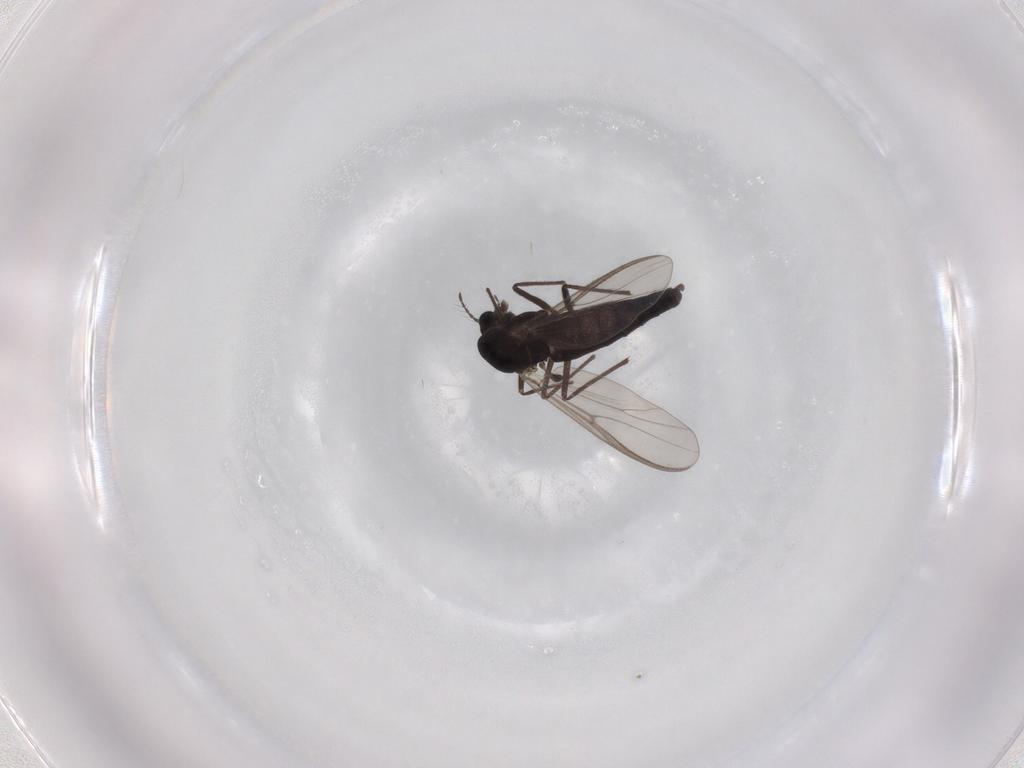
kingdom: Animalia
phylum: Arthropoda
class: Insecta
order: Diptera
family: Chironomidae
